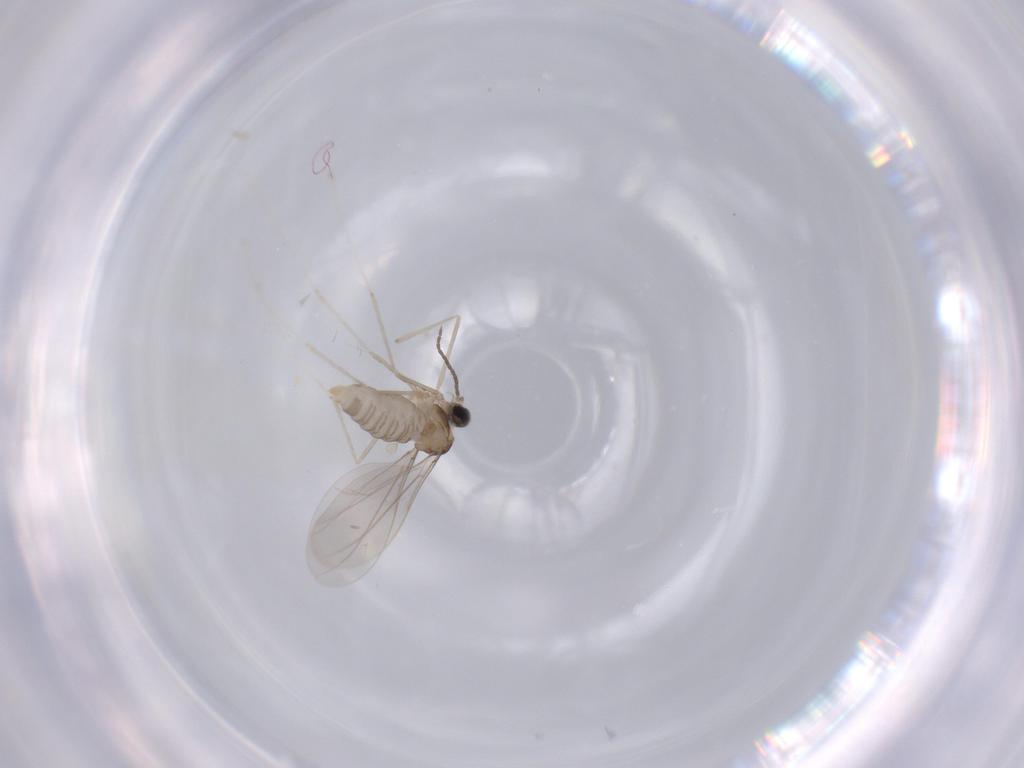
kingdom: Animalia
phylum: Arthropoda
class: Insecta
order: Diptera
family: Cecidomyiidae
